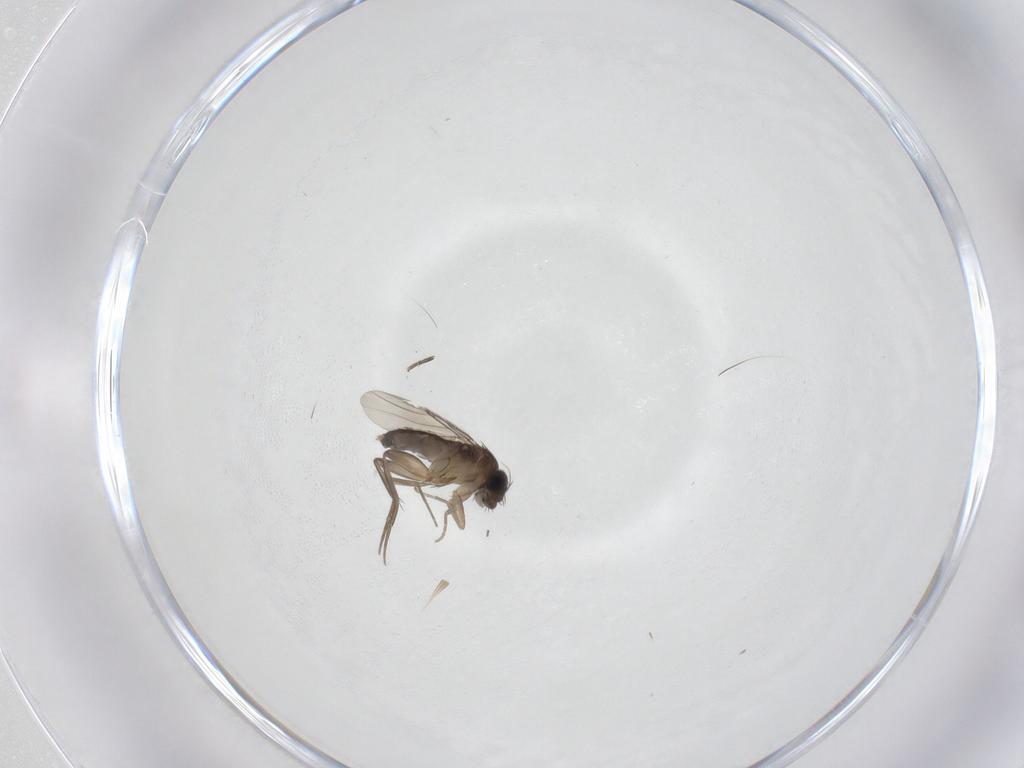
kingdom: Animalia
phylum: Arthropoda
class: Insecta
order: Diptera
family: Phoridae
